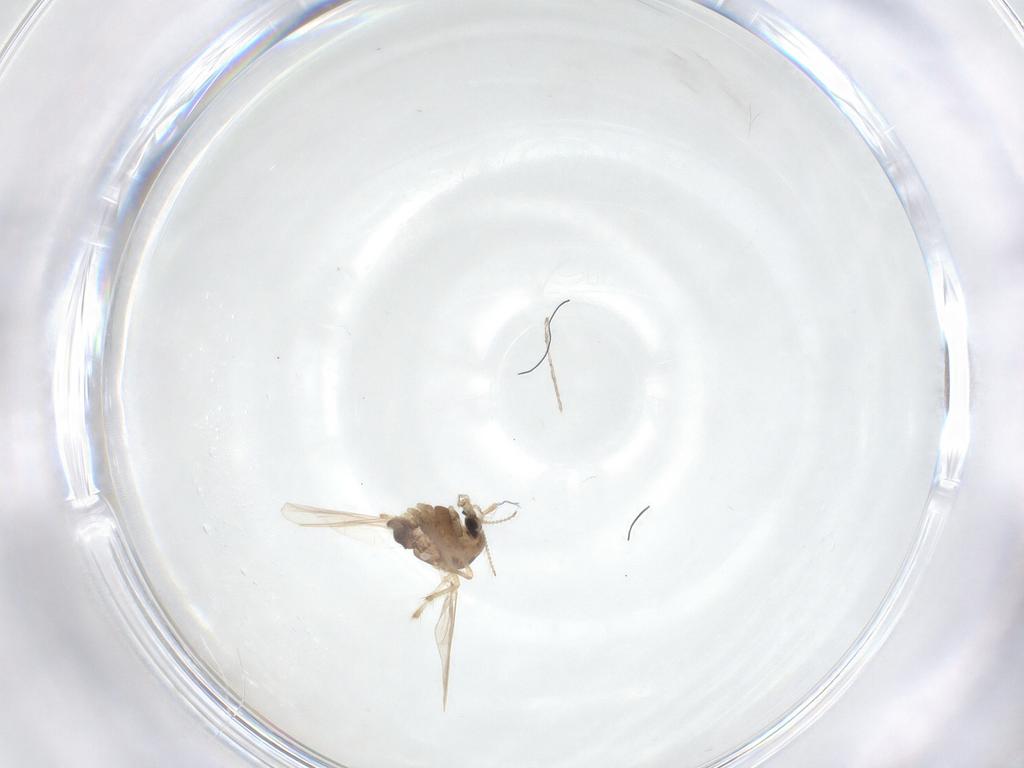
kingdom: Animalia
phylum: Arthropoda
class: Insecta
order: Diptera
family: Chironomidae
